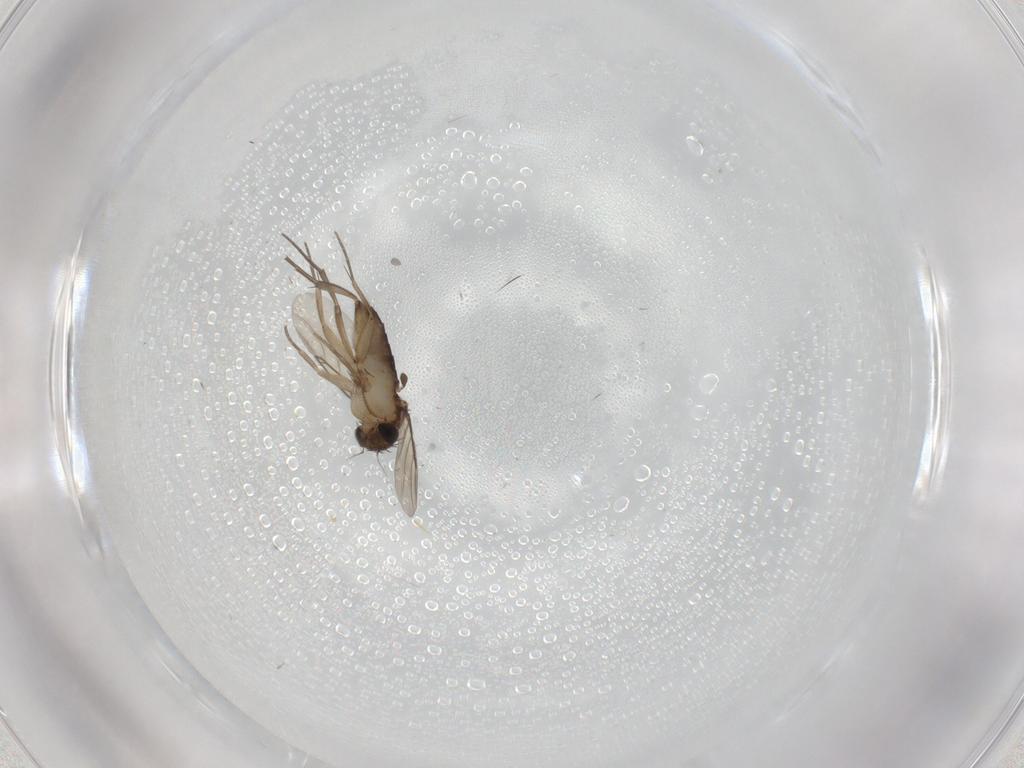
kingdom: Animalia
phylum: Arthropoda
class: Insecta
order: Diptera
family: Phoridae
